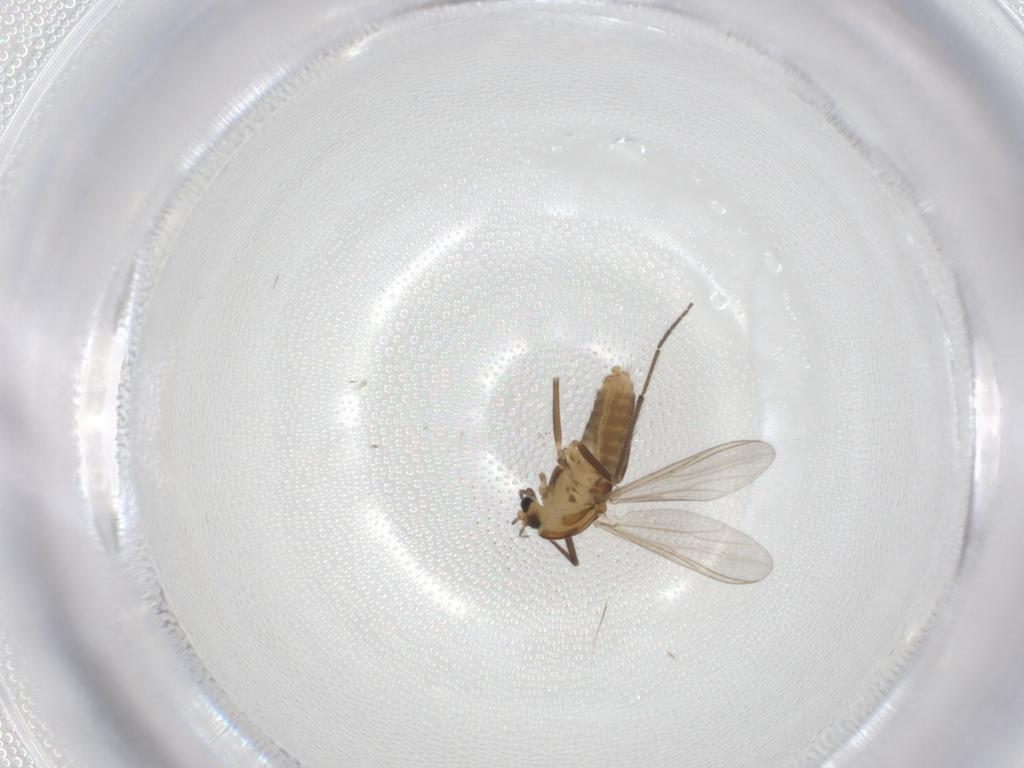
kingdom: Animalia
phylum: Arthropoda
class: Insecta
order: Diptera
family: Chironomidae
